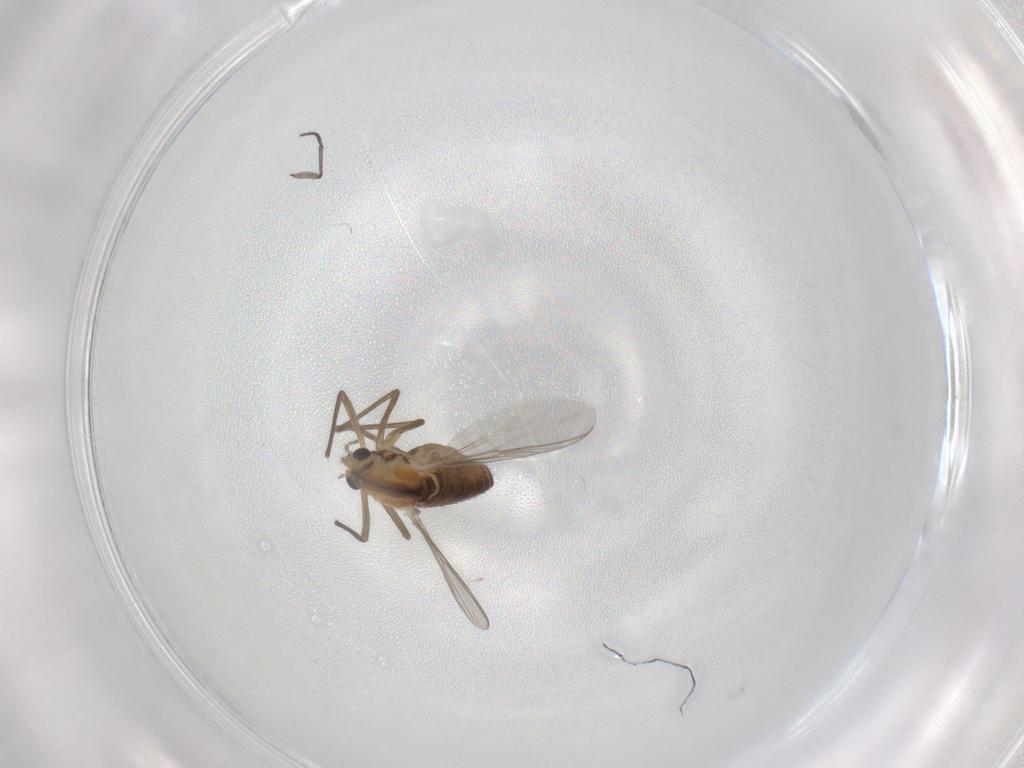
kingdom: Animalia
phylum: Arthropoda
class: Insecta
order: Diptera
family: Chironomidae
